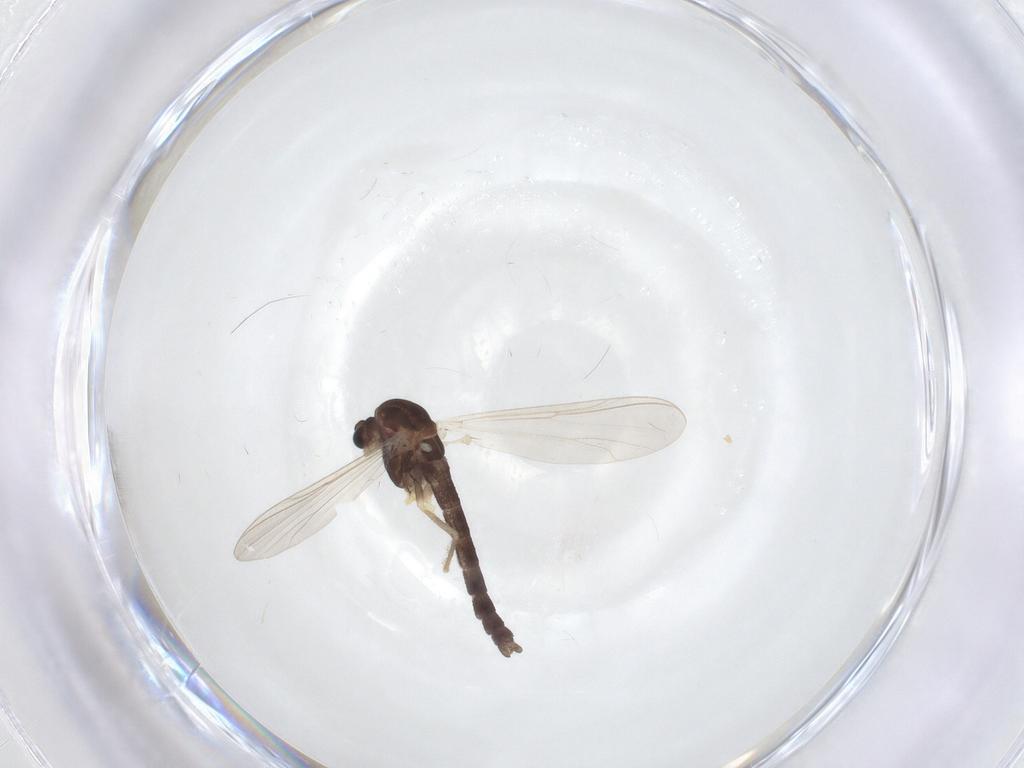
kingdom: Animalia
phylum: Arthropoda
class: Insecta
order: Diptera
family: Chironomidae
